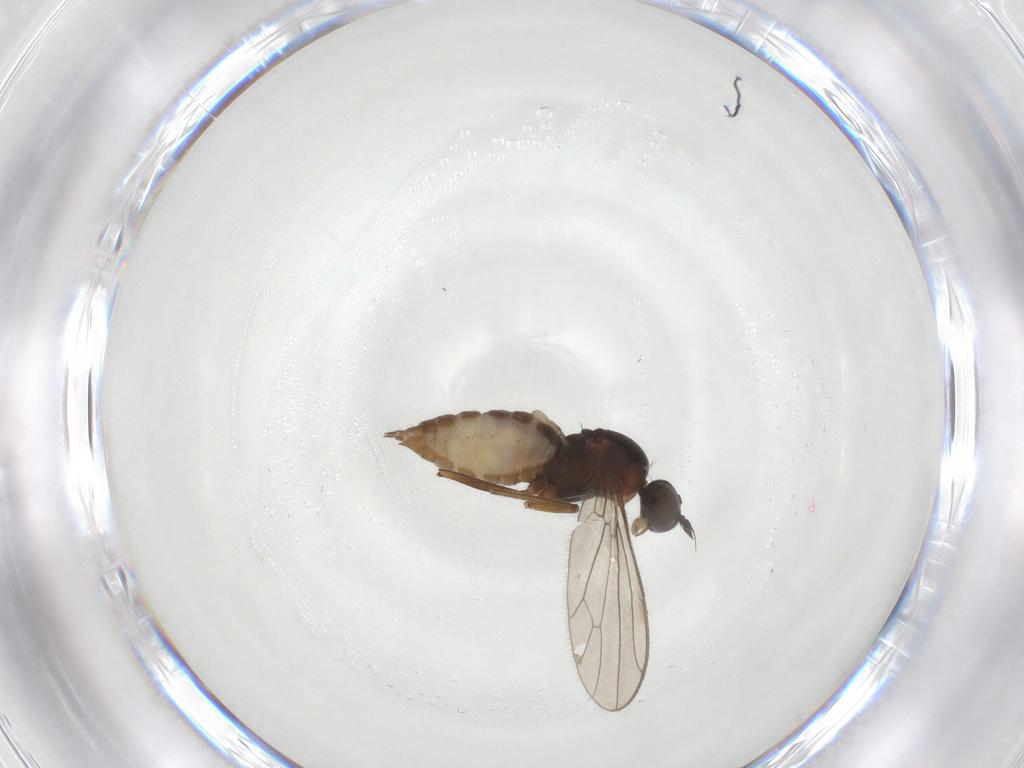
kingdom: Animalia
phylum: Arthropoda
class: Insecta
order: Diptera
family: Empididae
